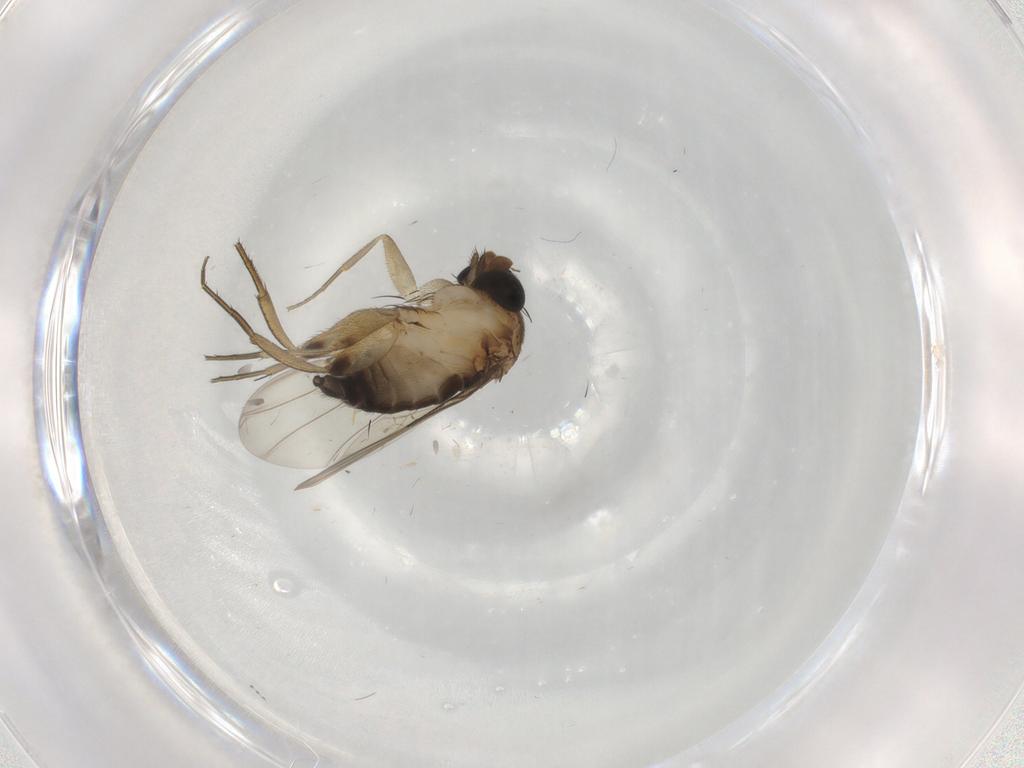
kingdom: Animalia
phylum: Arthropoda
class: Insecta
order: Diptera
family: Phoridae
